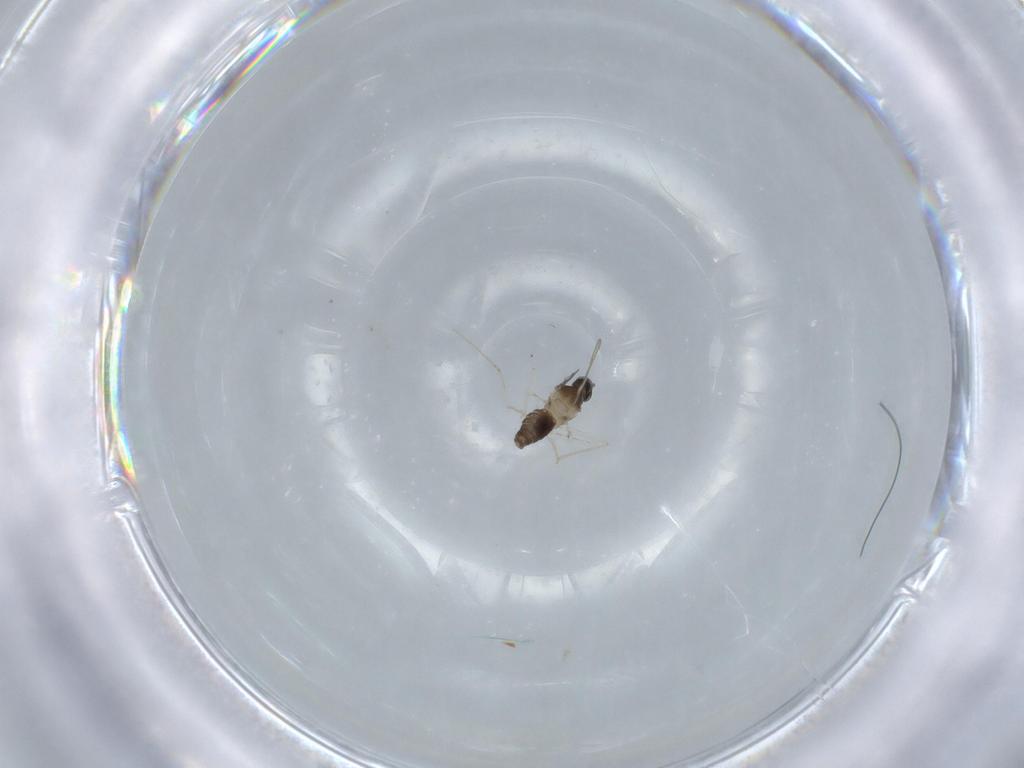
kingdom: Animalia
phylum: Arthropoda
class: Insecta
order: Diptera
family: Cecidomyiidae
